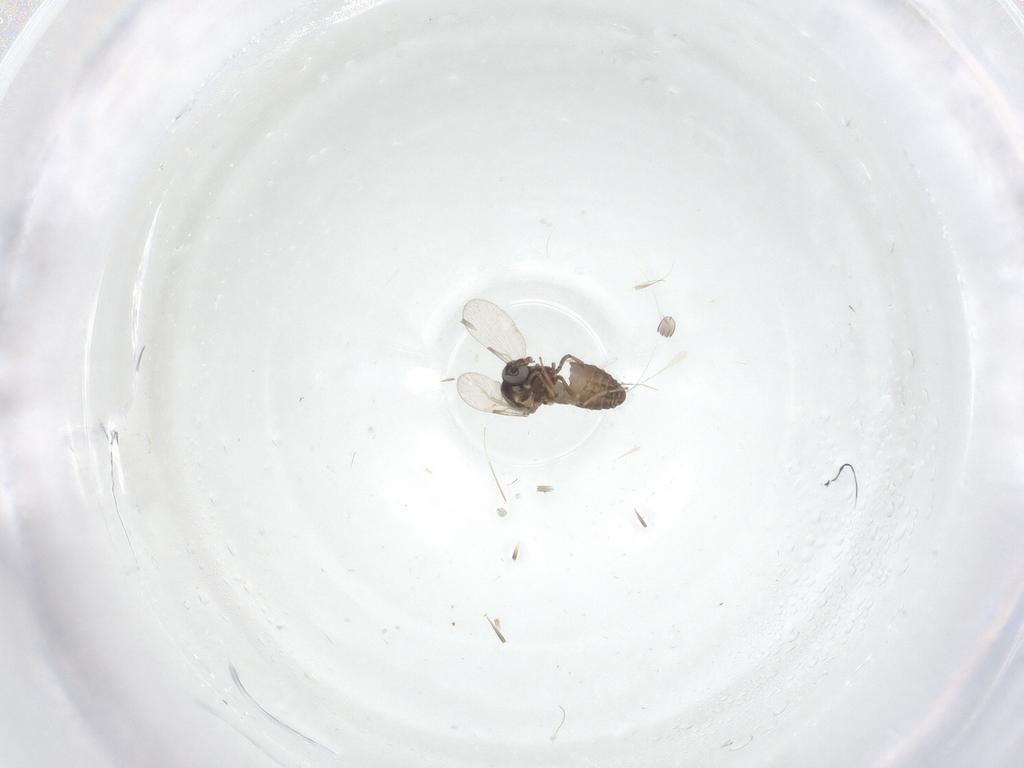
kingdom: Animalia
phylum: Arthropoda
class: Insecta
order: Diptera
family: Ceratopogonidae
